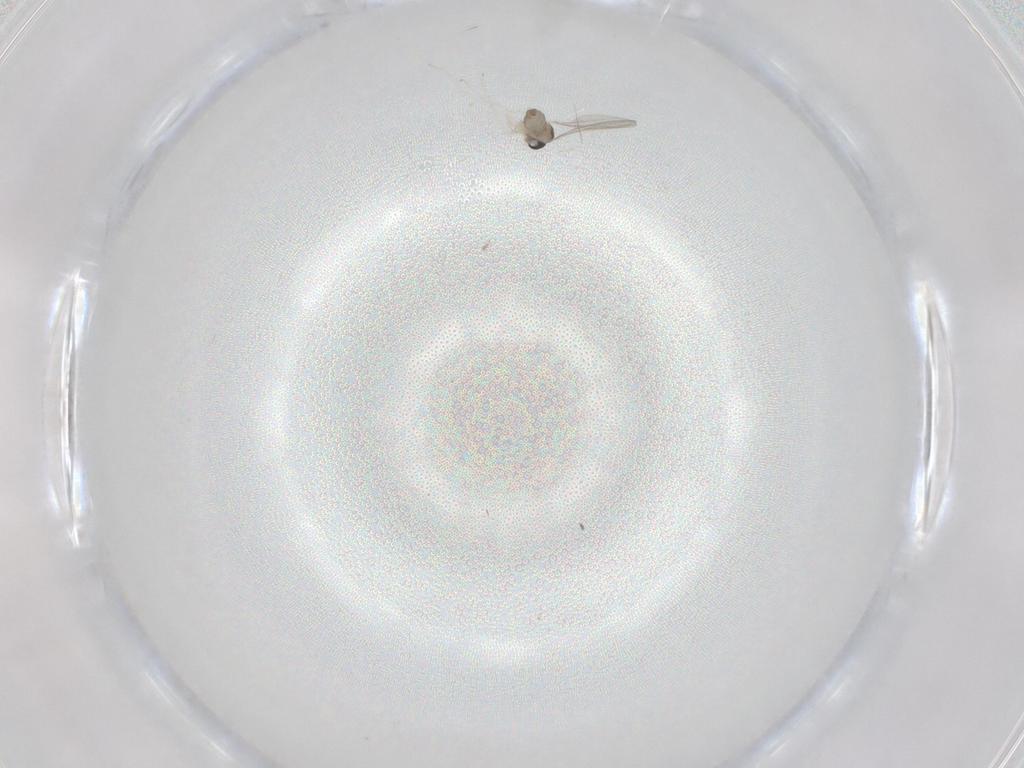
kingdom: Animalia
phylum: Arthropoda
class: Insecta
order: Diptera
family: Cecidomyiidae
